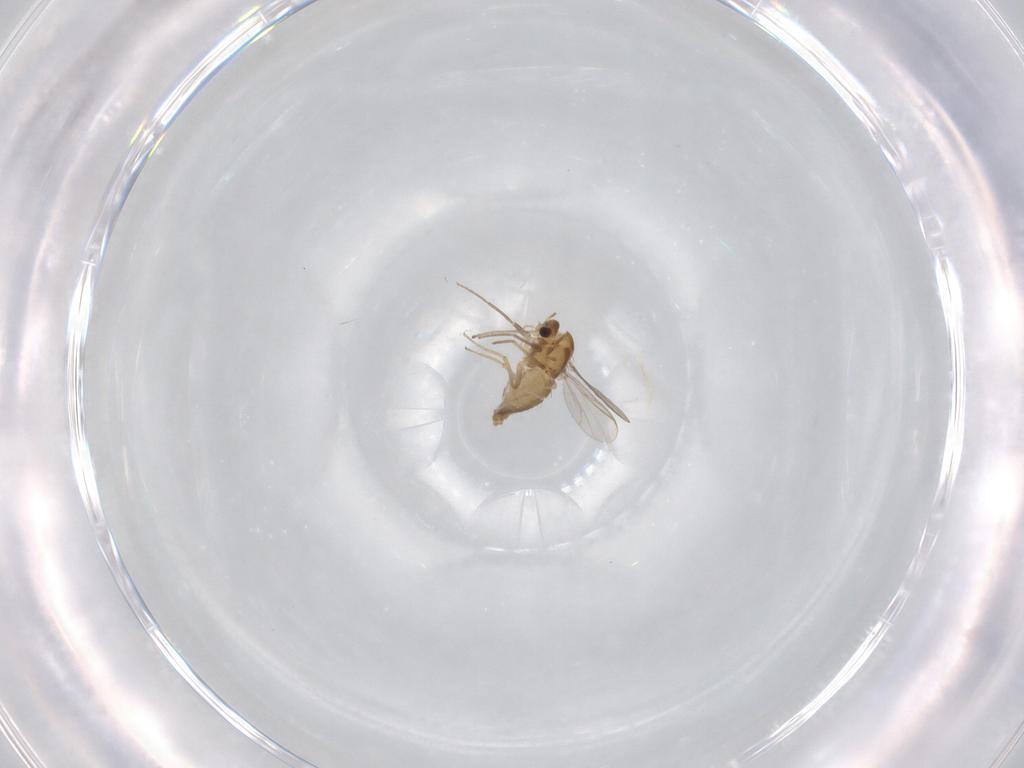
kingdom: Animalia
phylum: Arthropoda
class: Insecta
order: Diptera
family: Chironomidae
